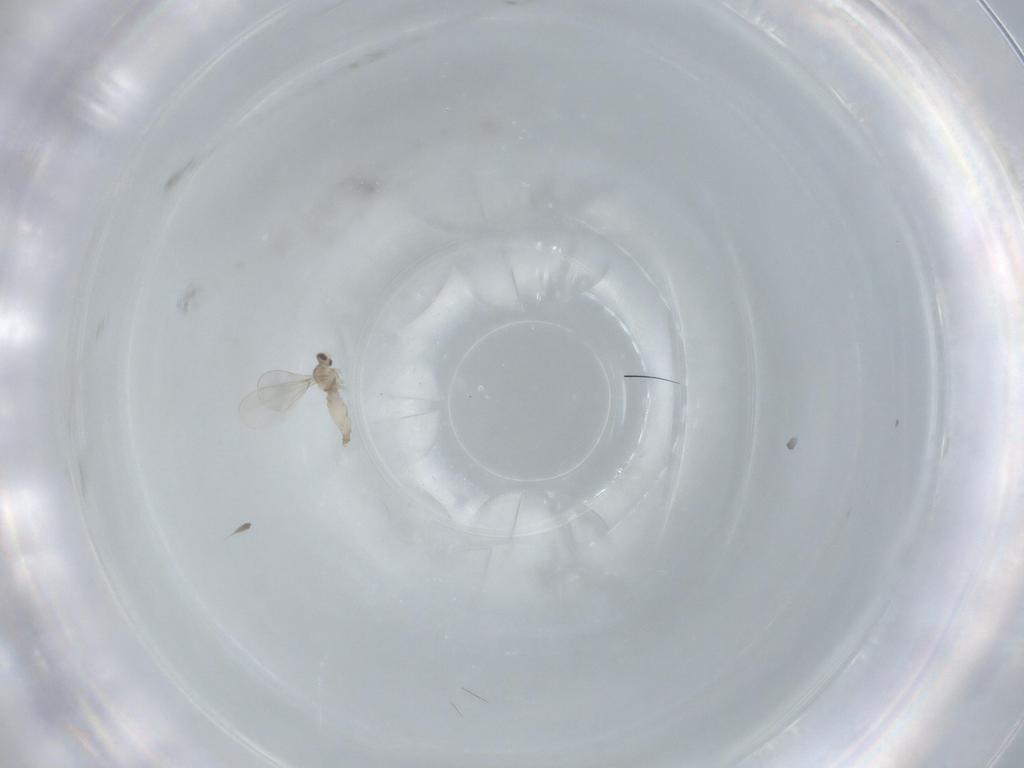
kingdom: Animalia
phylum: Arthropoda
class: Insecta
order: Diptera
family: Cecidomyiidae
